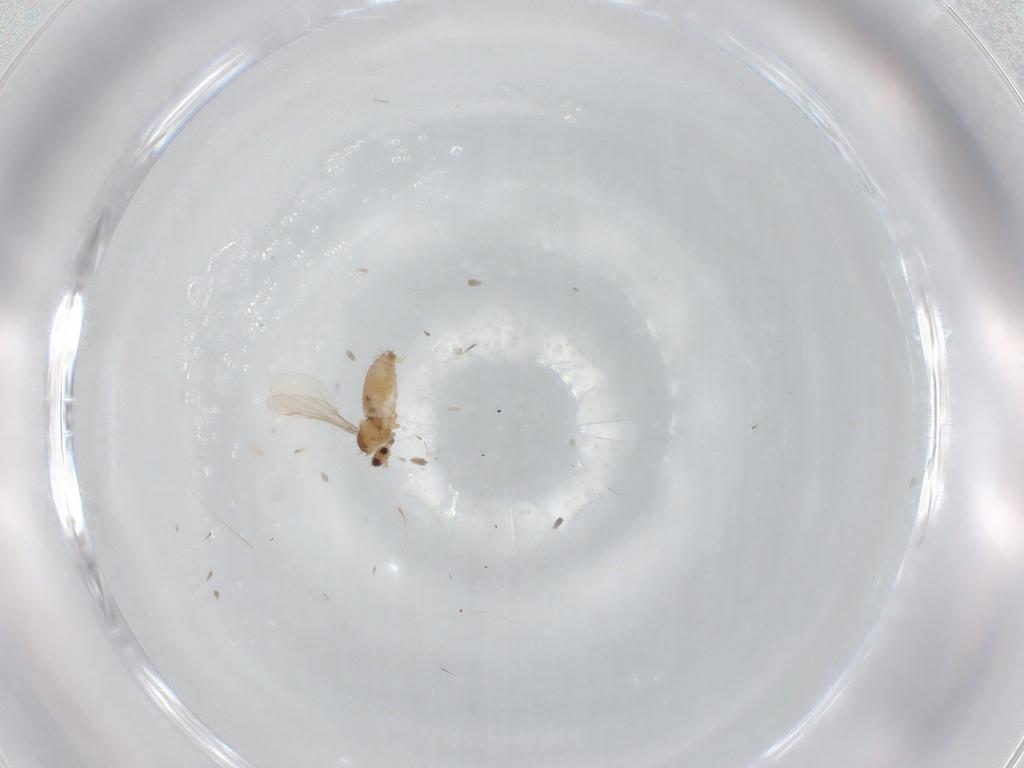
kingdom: Animalia
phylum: Arthropoda
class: Insecta
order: Diptera
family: Cecidomyiidae
